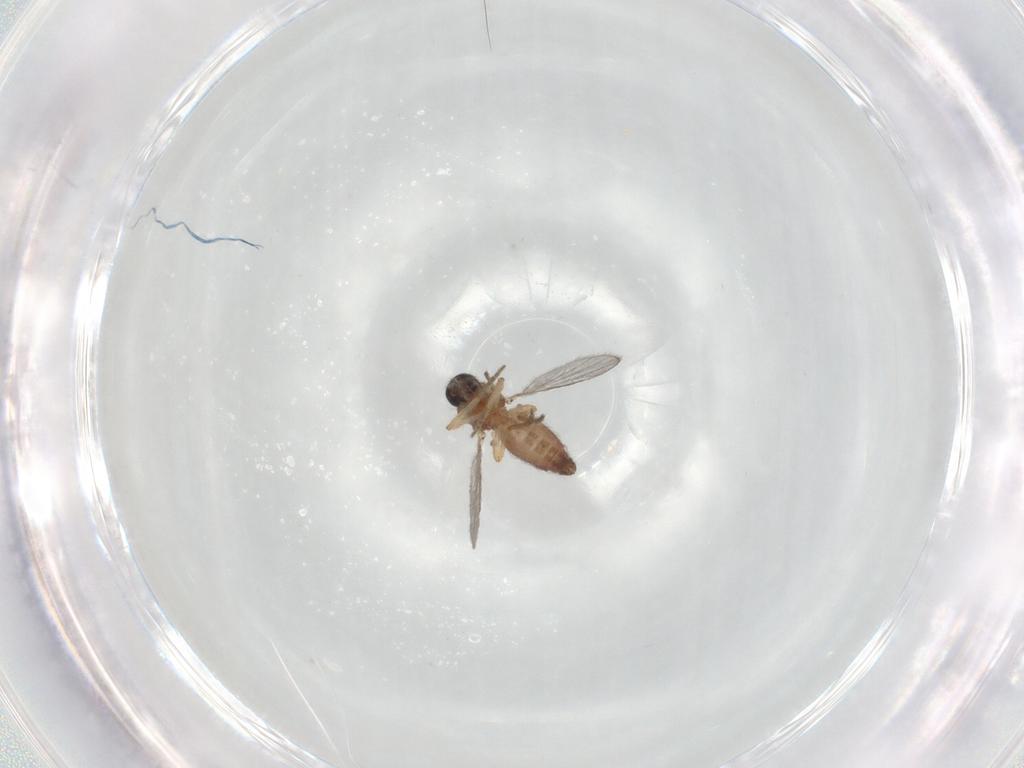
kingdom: Animalia
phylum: Arthropoda
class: Insecta
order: Diptera
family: Ceratopogonidae
